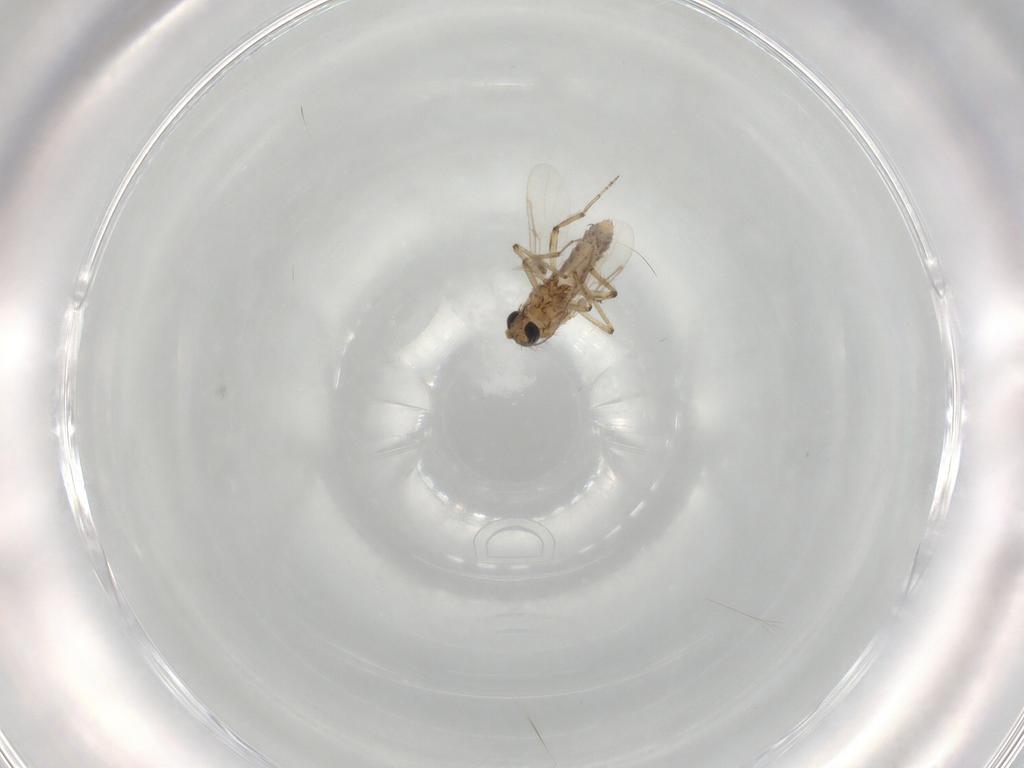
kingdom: Animalia
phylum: Arthropoda
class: Insecta
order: Diptera
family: Ceratopogonidae
